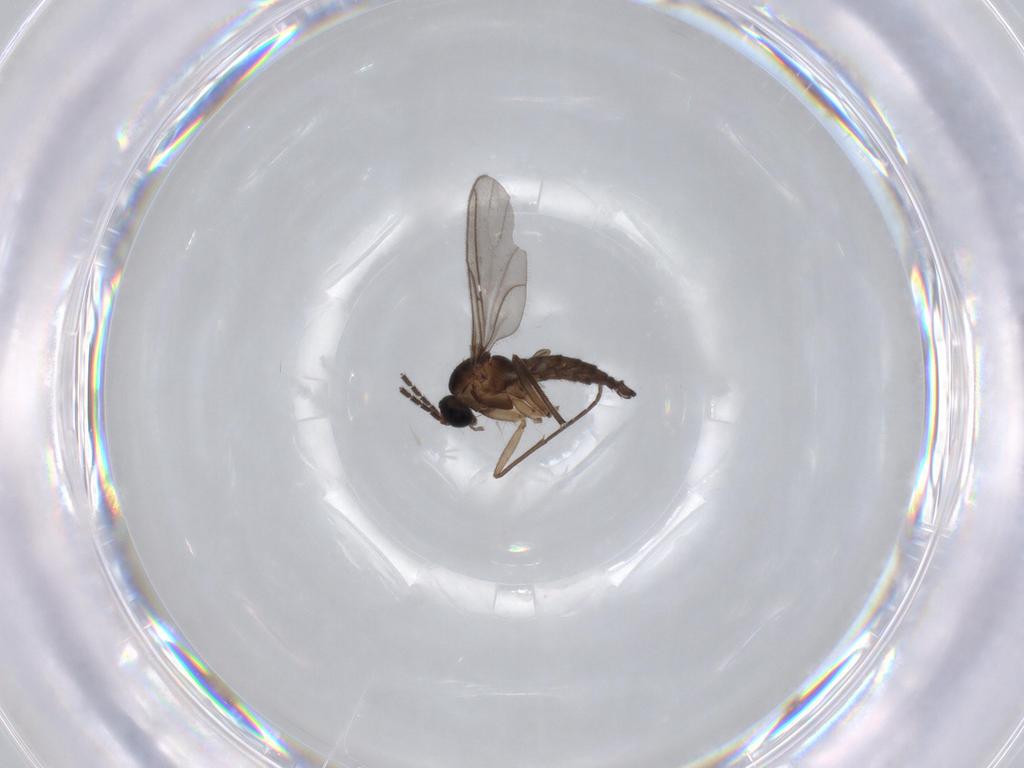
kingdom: Animalia
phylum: Arthropoda
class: Insecta
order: Diptera
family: Sciaridae
